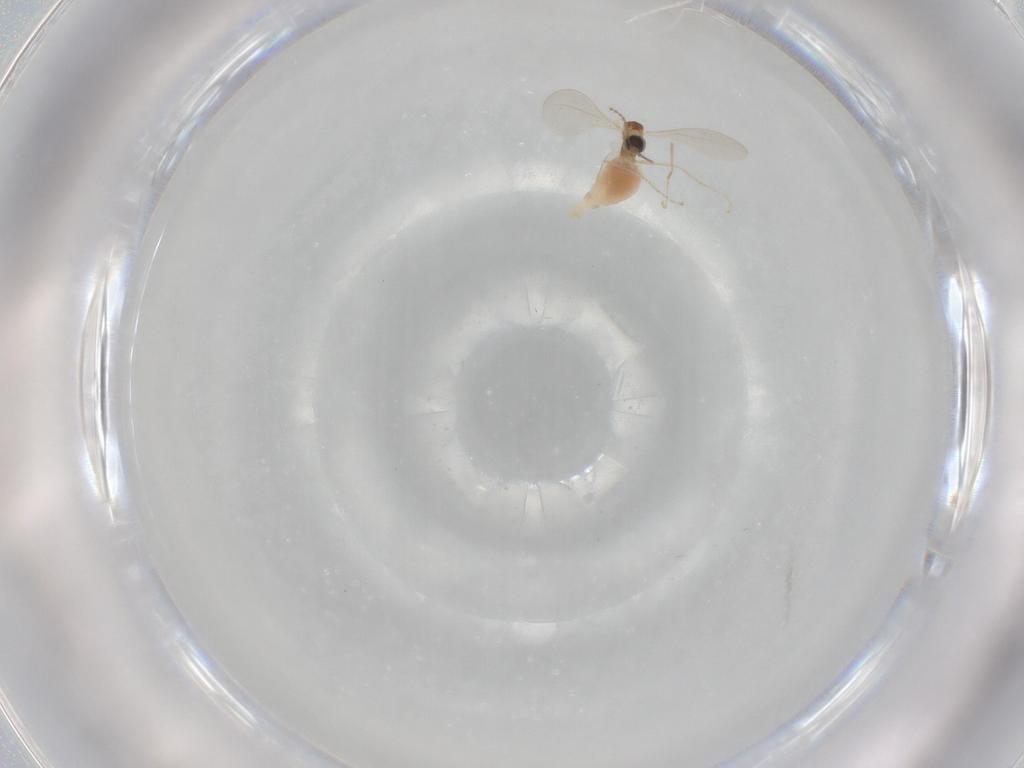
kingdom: Animalia
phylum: Arthropoda
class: Insecta
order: Diptera
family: Cecidomyiidae
